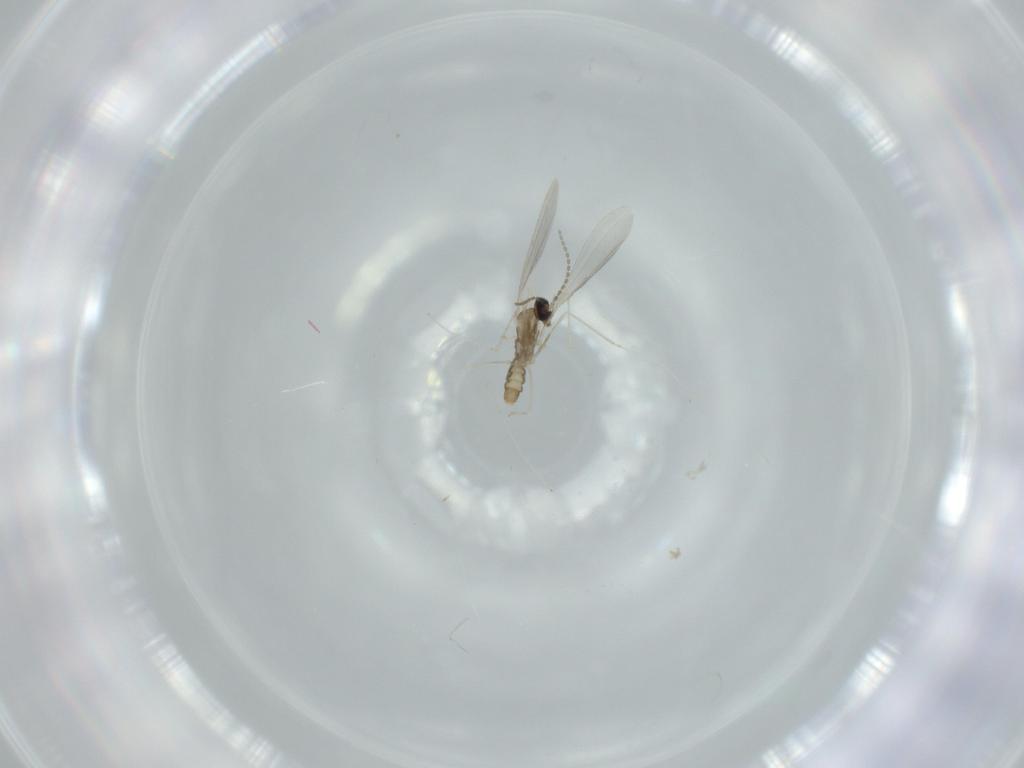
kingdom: Animalia
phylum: Arthropoda
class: Insecta
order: Diptera
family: Cecidomyiidae
